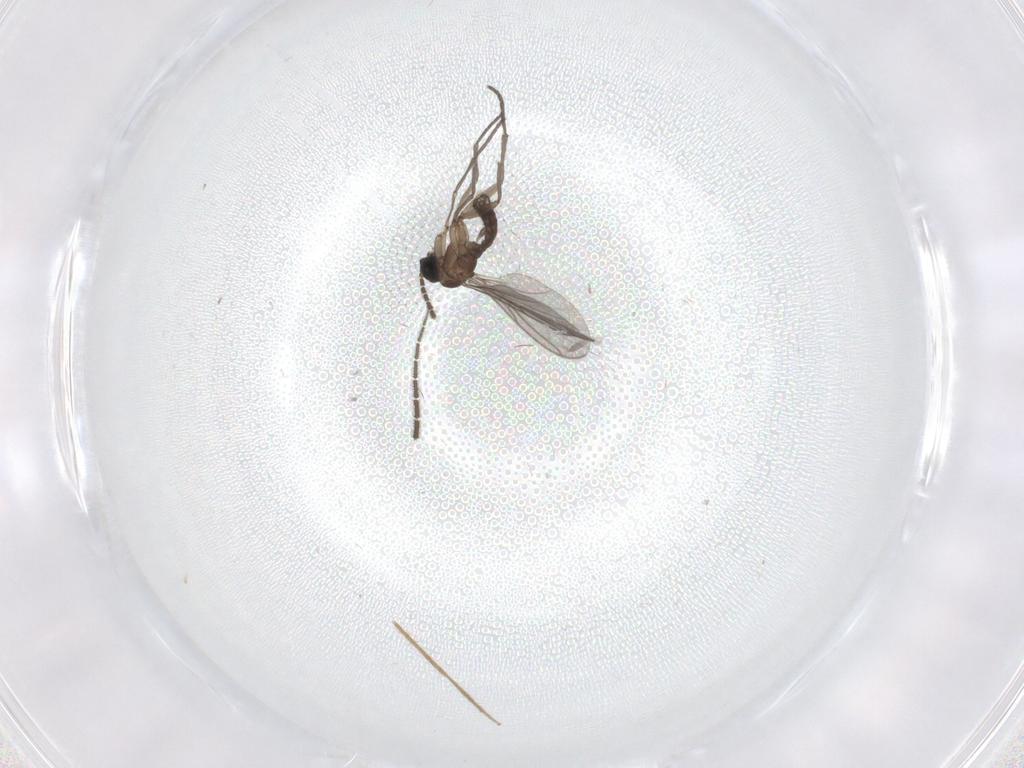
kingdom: Animalia
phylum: Arthropoda
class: Insecta
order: Diptera
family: Sciaridae
